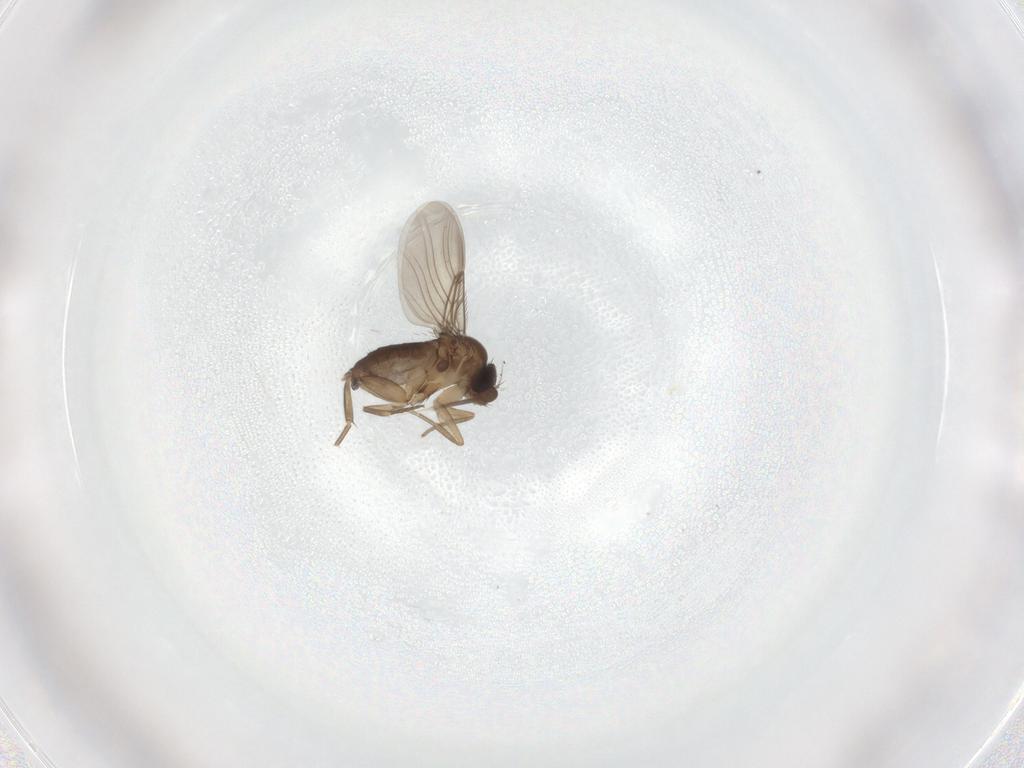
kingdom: Animalia
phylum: Arthropoda
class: Insecta
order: Diptera
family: Phoridae
